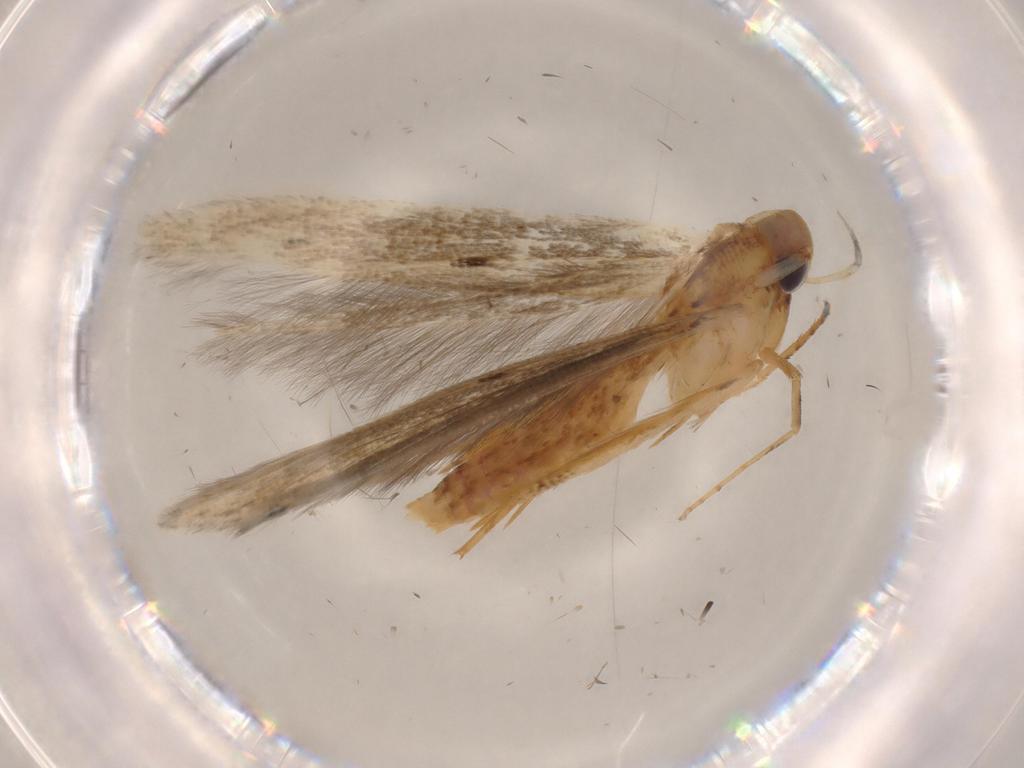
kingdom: Animalia
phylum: Arthropoda
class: Insecta
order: Lepidoptera
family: Heliodinidae
